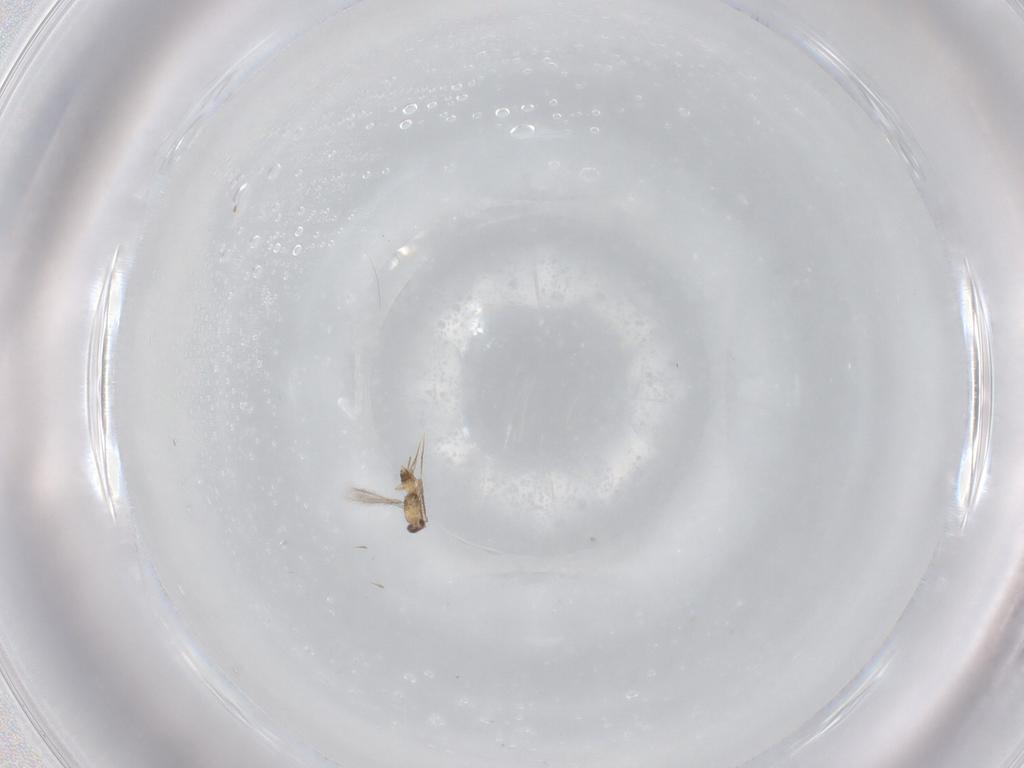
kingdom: Animalia
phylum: Arthropoda
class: Insecta
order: Hymenoptera
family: Mymaridae
